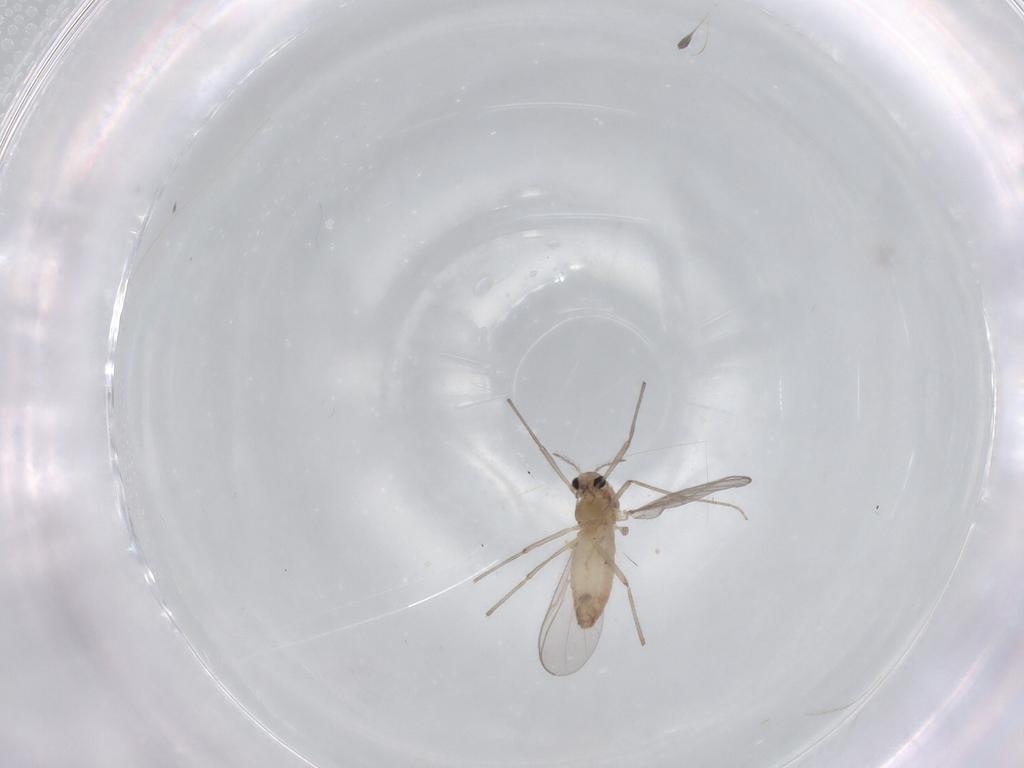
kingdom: Animalia
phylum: Arthropoda
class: Insecta
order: Diptera
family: Chironomidae
